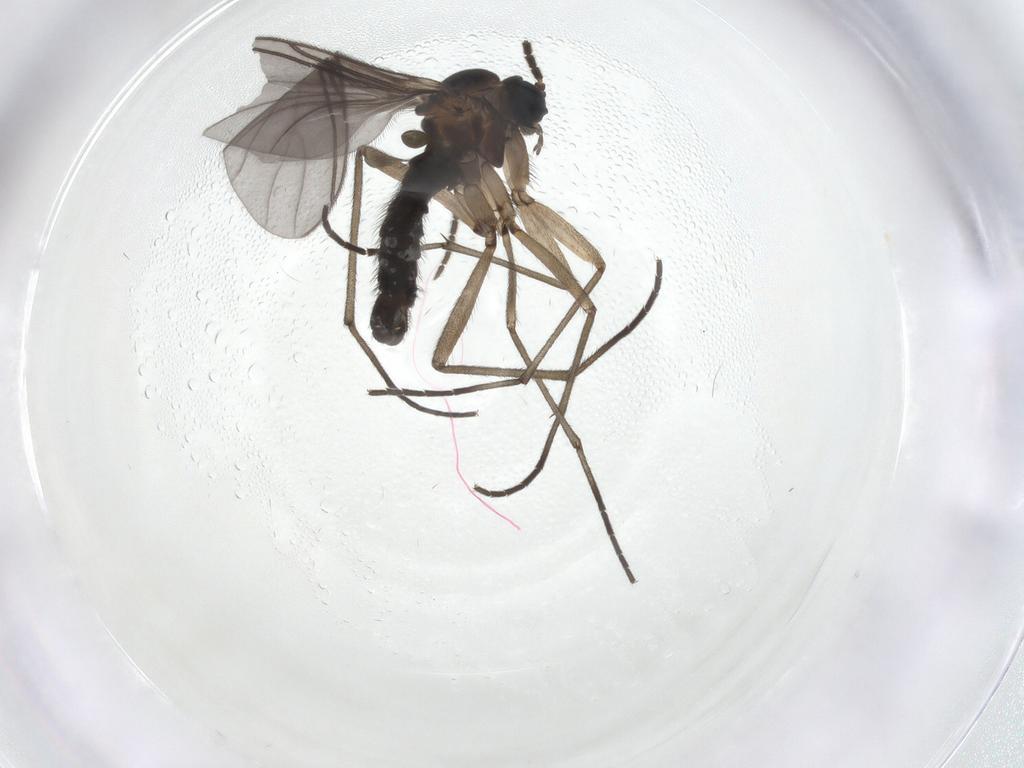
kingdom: Animalia
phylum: Arthropoda
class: Insecta
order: Diptera
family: Sciaridae
